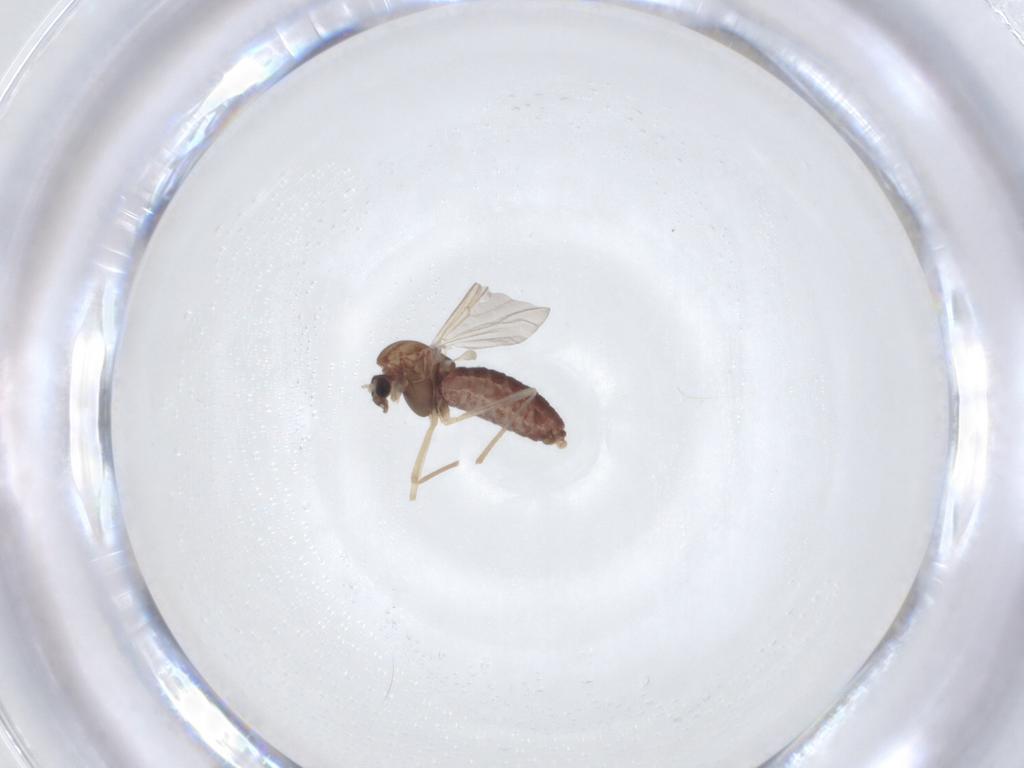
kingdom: Animalia
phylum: Arthropoda
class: Insecta
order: Diptera
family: Chironomidae
